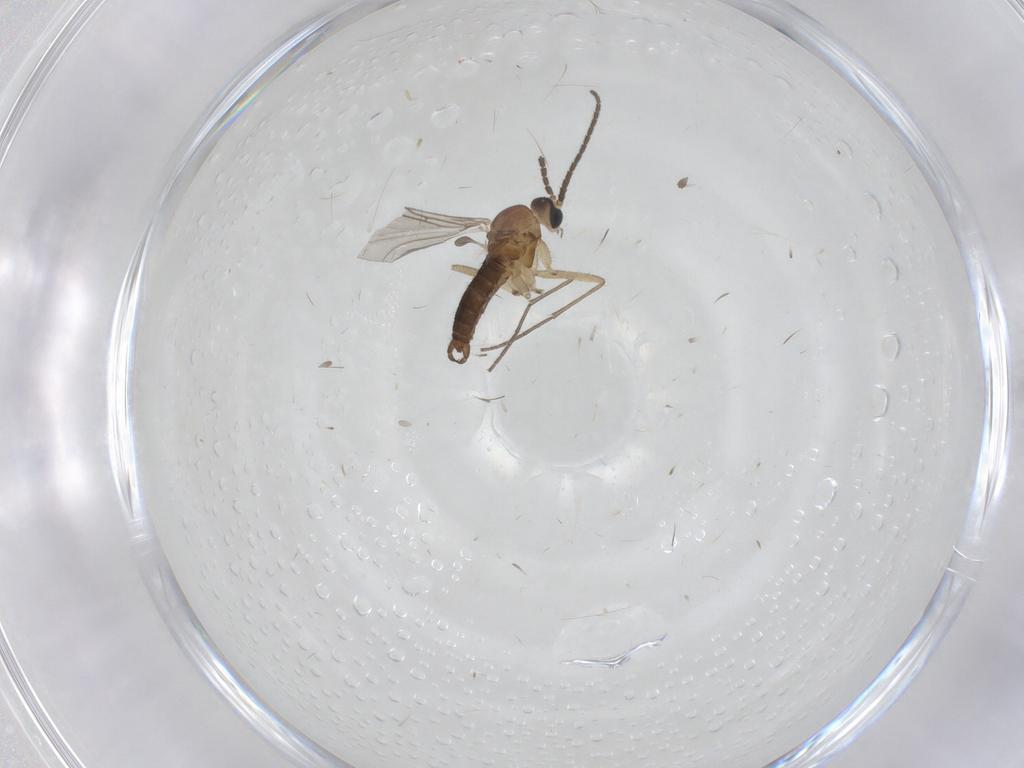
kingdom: Animalia
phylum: Arthropoda
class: Insecta
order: Diptera
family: Sciaridae
